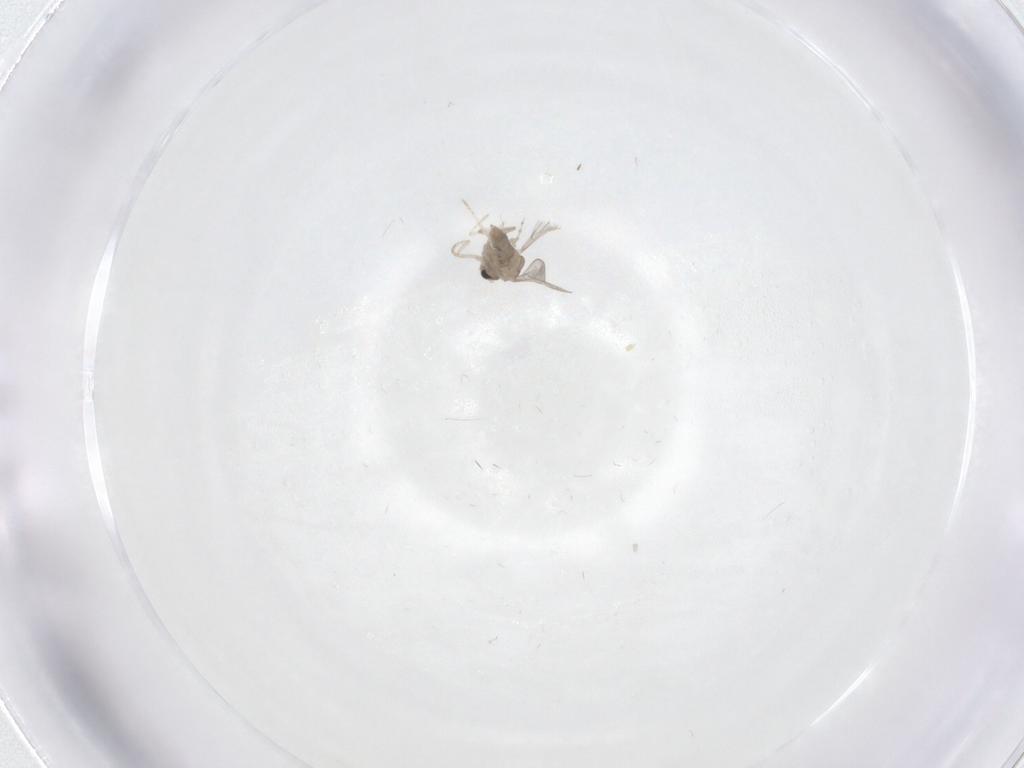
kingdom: Animalia
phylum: Arthropoda
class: Insecta
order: Diptera
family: Cecidomyiidae
